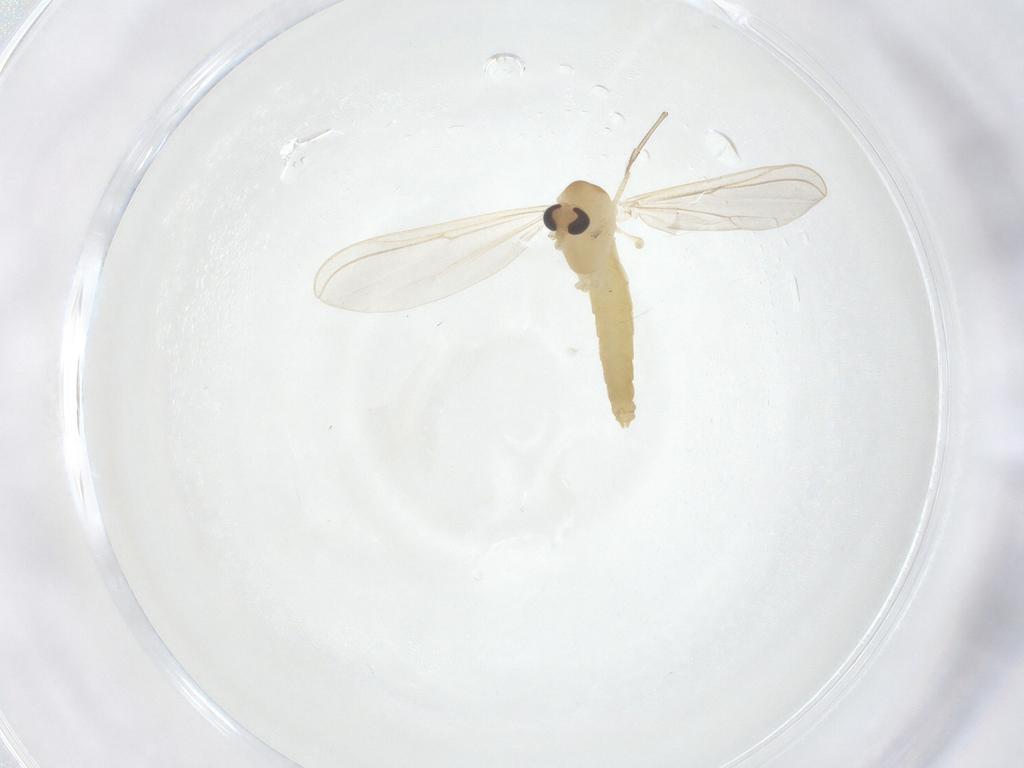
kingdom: Animalia
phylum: Arthropoda
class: Insecta
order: Diptera
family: Chironomidae
